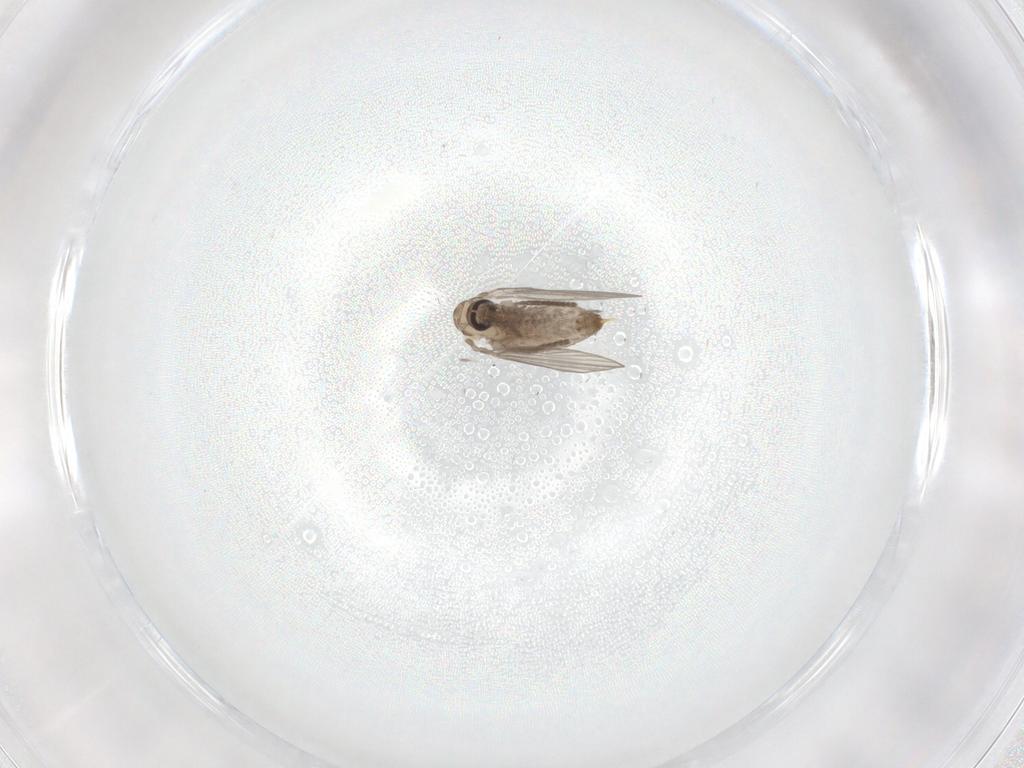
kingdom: Animalia
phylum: Arthropoda
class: Insecta
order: Diptera
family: Psychodidae
